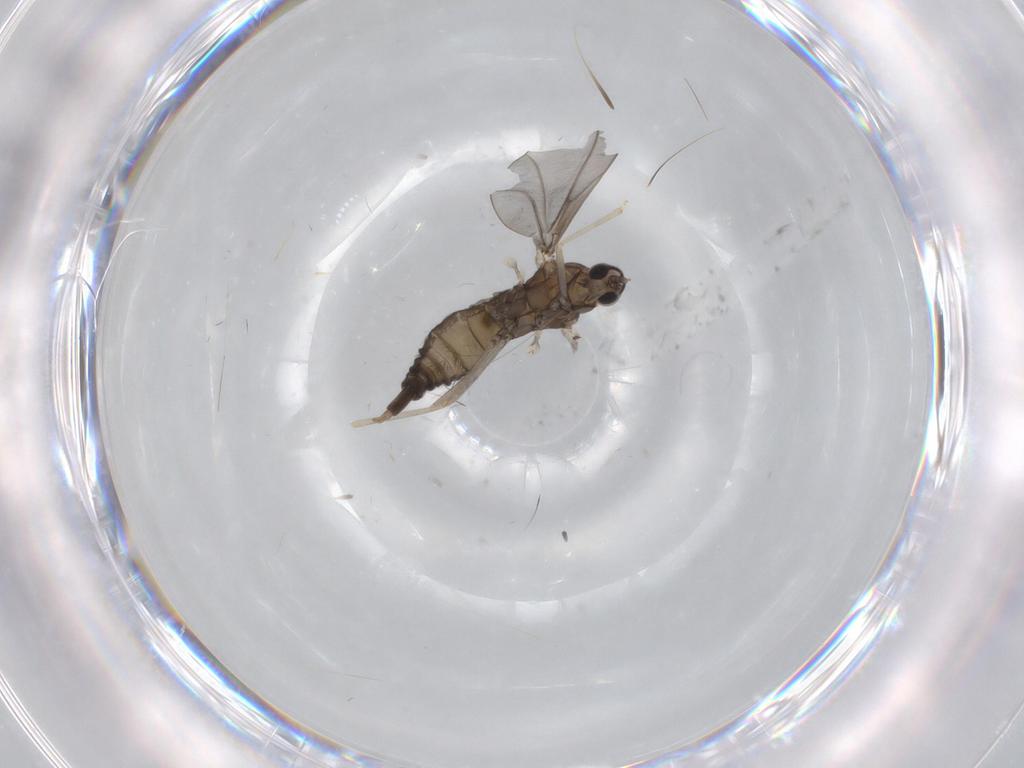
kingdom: Animalia
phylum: Arthropoda
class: Insecta
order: Diptera
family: Cecidomyiidae
